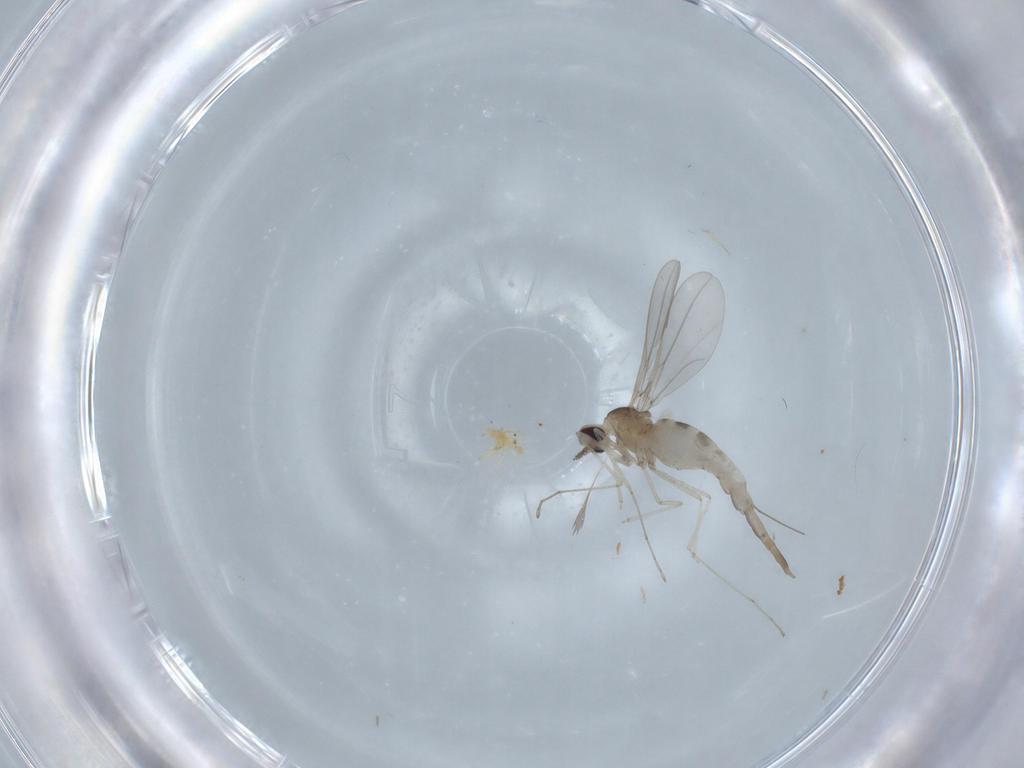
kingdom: Animalia
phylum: Arthropoda
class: Insecta
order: Diptera
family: Cecidomyiidae
